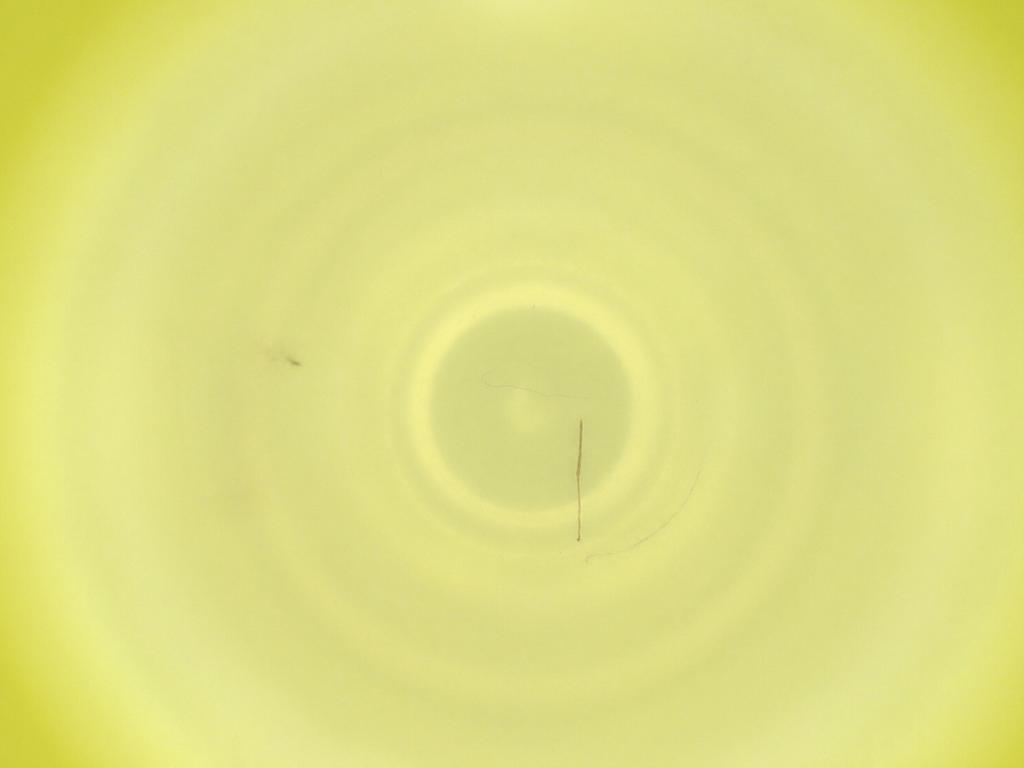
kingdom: Animalia
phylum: Arthropoda
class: Insecta
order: Diptera
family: Cecidomyiidae
